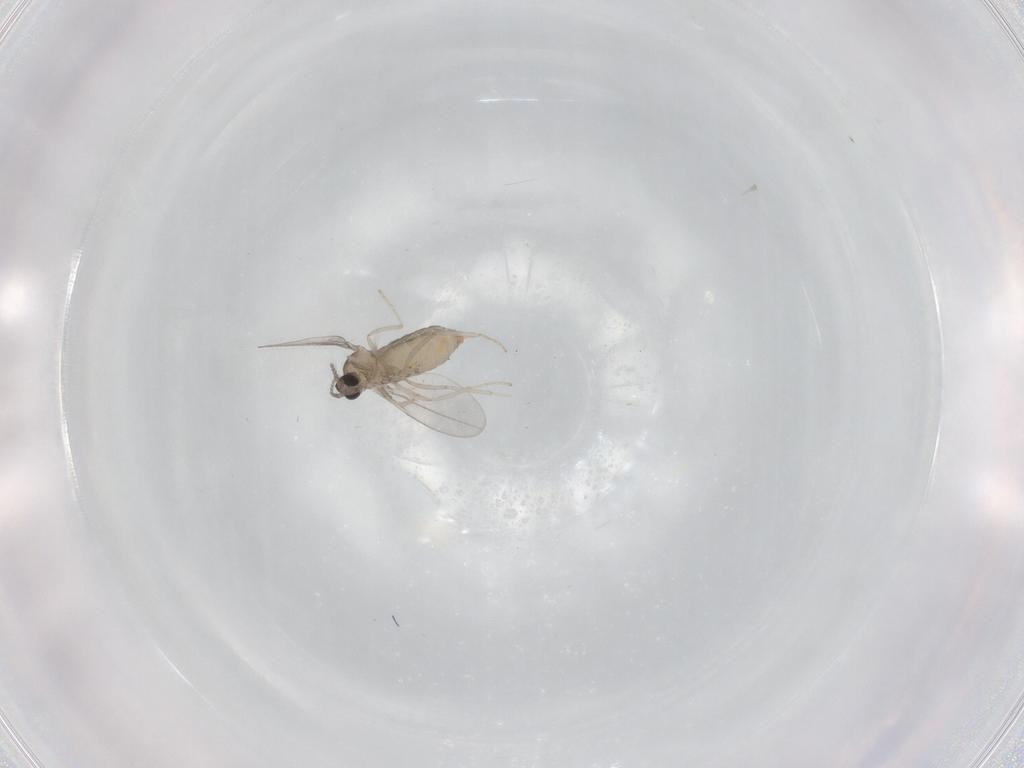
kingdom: Animalia
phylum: Arthropoda
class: Insecta
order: Diptera
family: Cecidomyiidae
